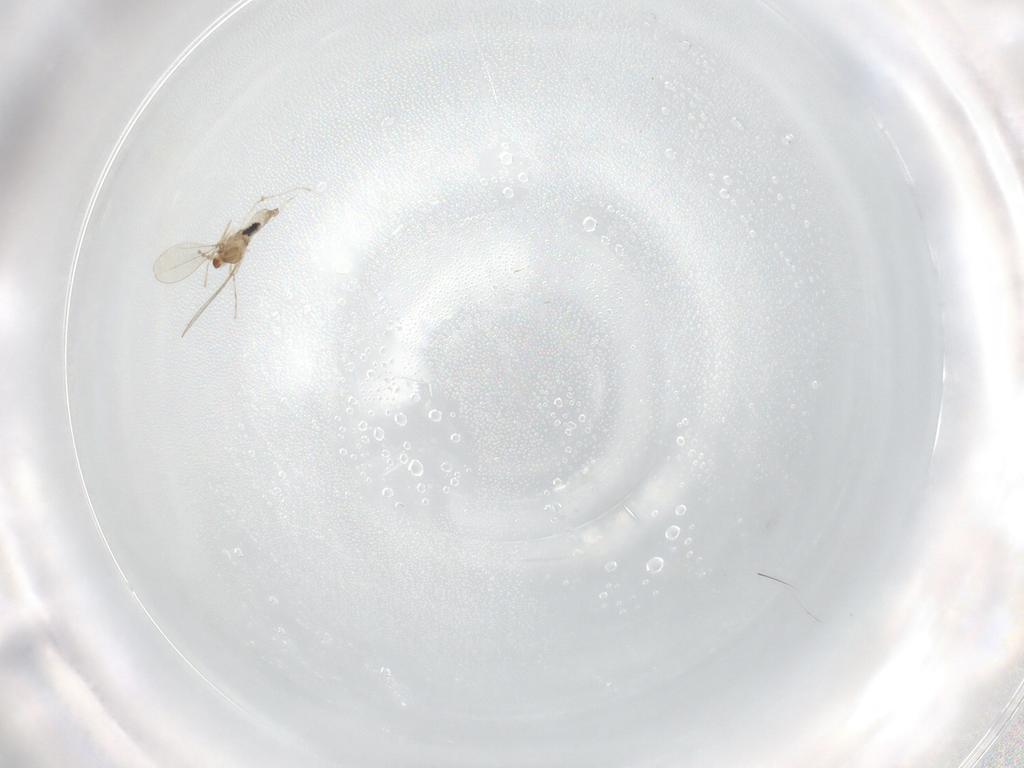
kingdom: Animalia
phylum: Arthropoda
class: Insecta
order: Diptera
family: Cecidomyiidae
